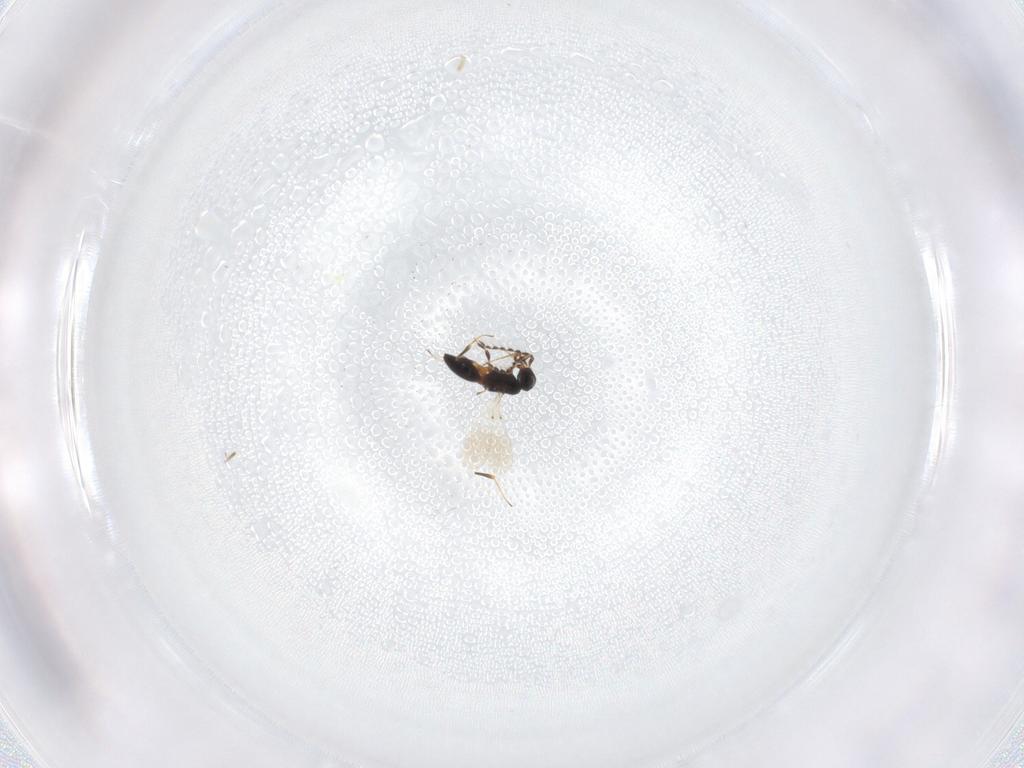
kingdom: Animalia
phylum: Arthropoda
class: Insecta
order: Hymenoptera
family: Platygastridae
